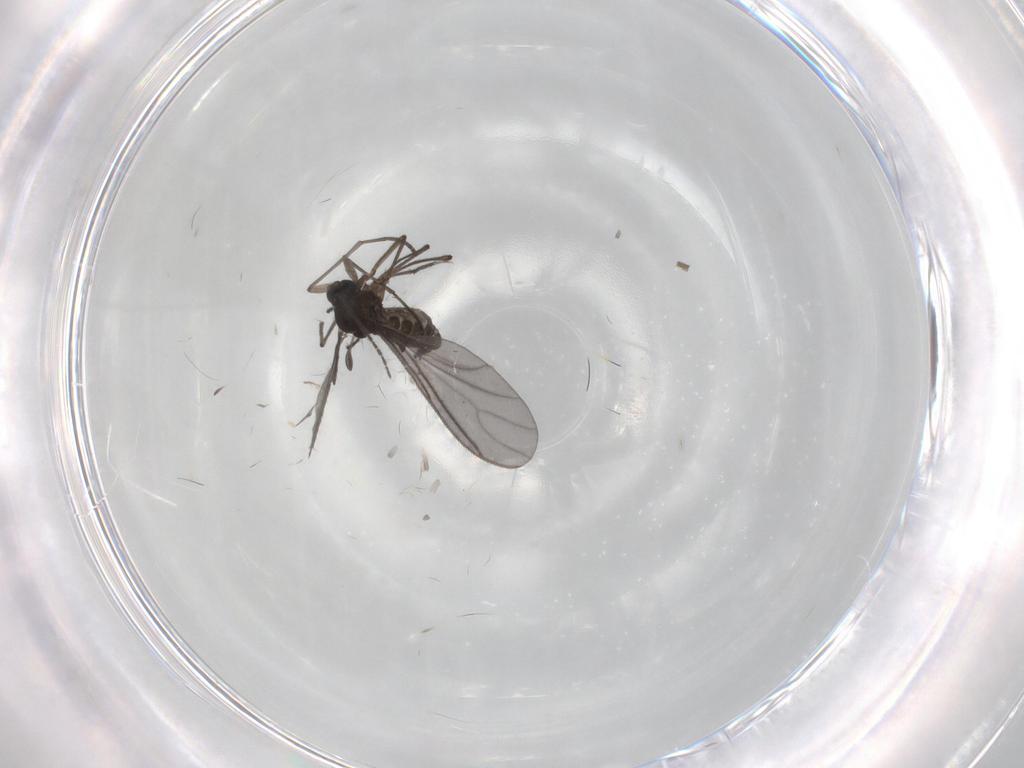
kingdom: Animalia
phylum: Arthropoda
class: Insecta
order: Diptera
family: Sciaridae
